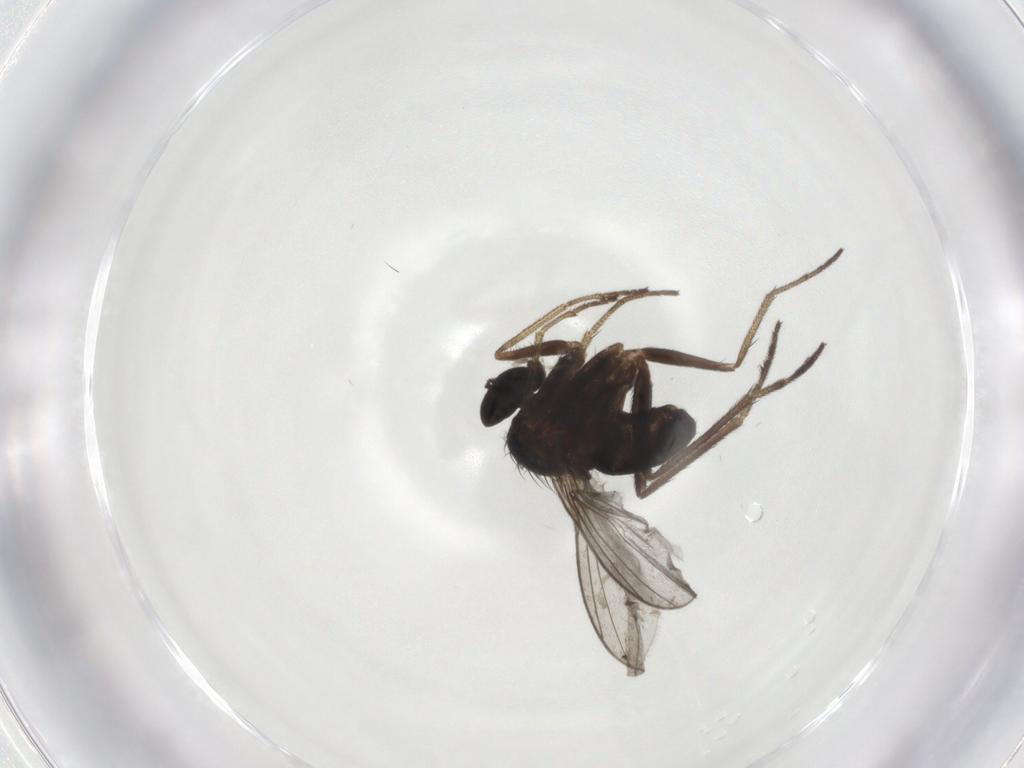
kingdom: Animalia
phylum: Arthropoda
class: Insecta
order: Diptera
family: Dolichopodidae
